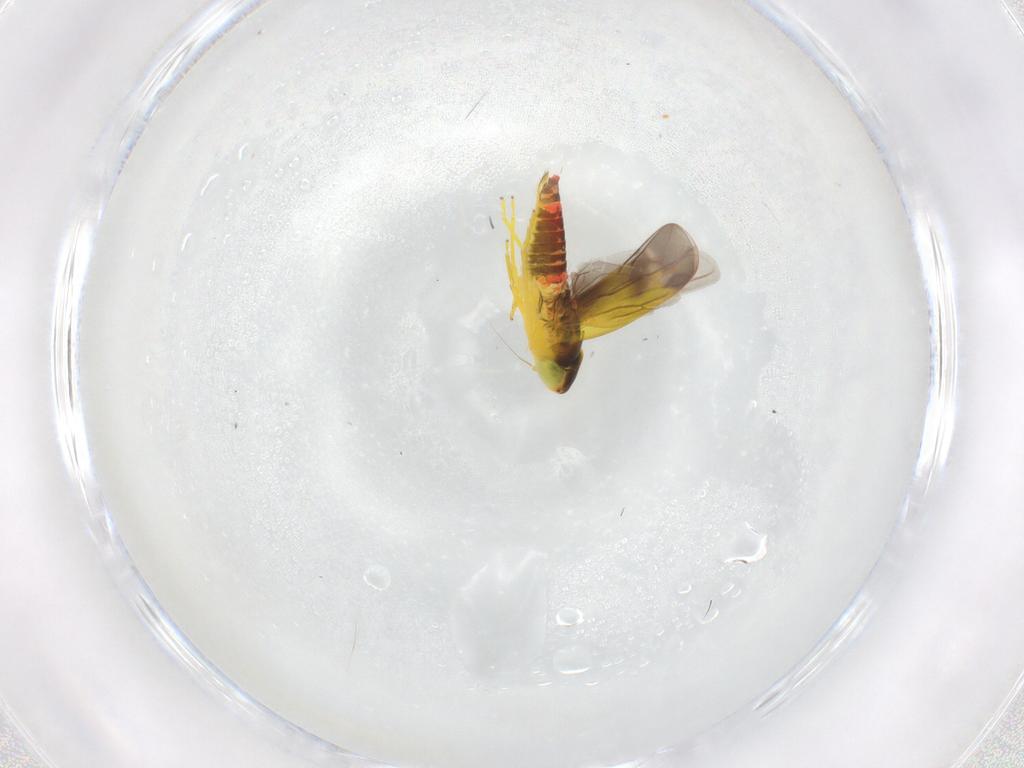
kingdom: Animalia
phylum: Arthropoda
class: Insecta
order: Hemiptera
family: Cicadellidae
